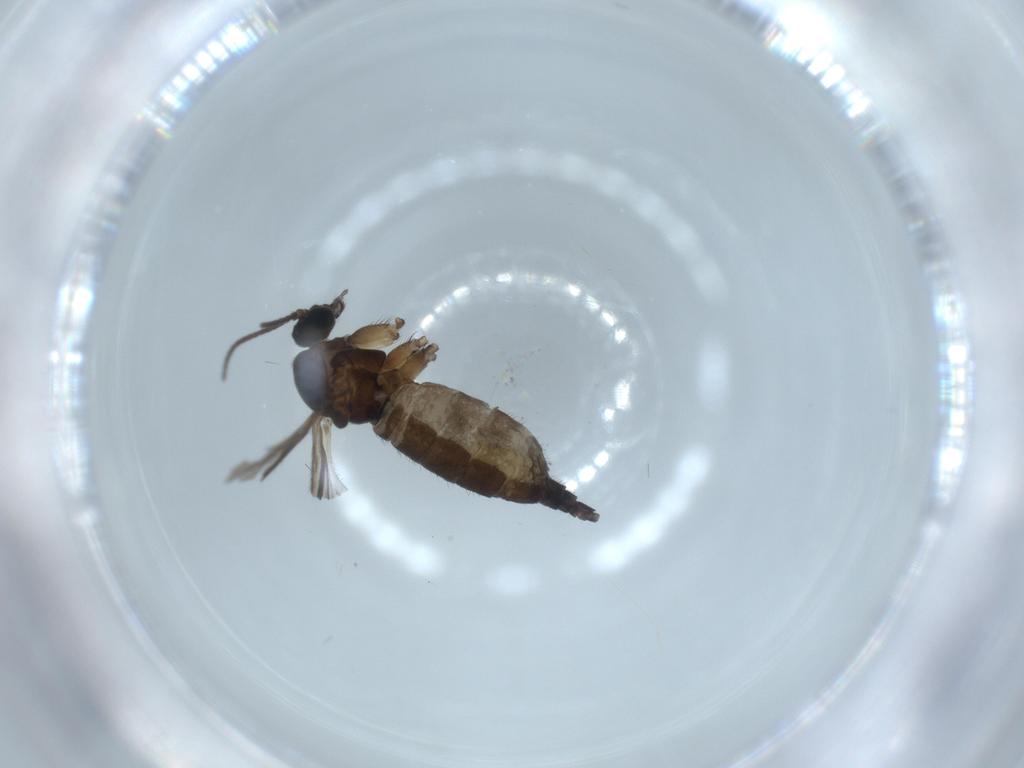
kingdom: Animalia
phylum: Arthropoda
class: Insecta
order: Diptera
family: Sciaridae
